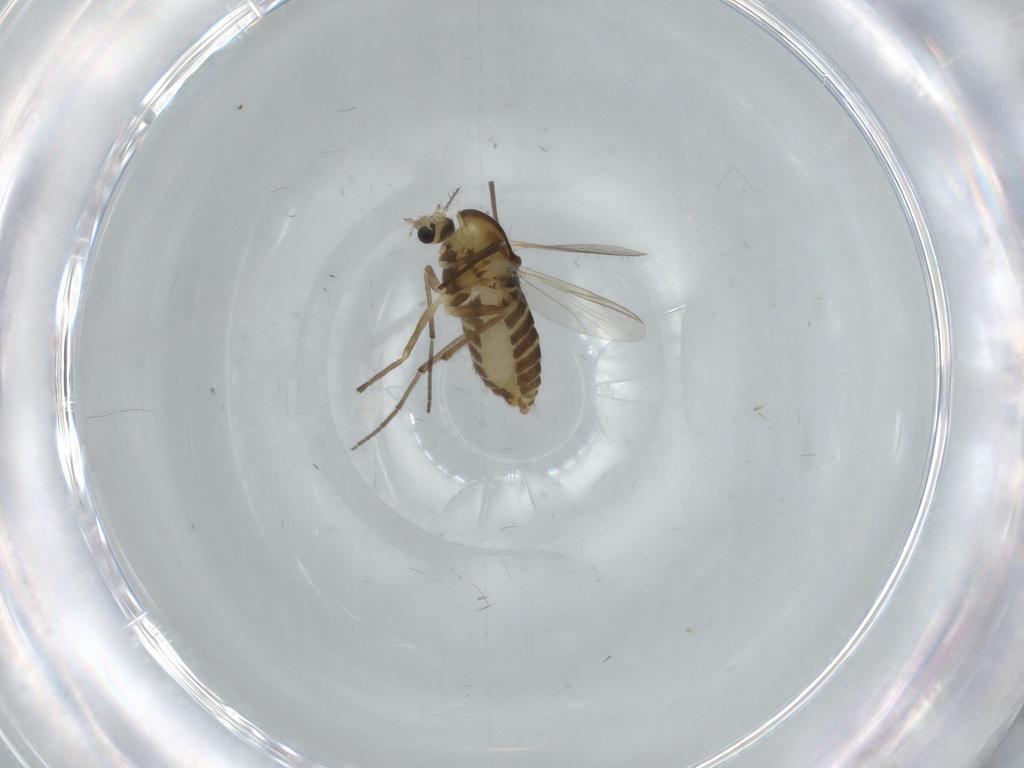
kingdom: Animalia
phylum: Arthropoda
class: Insecta
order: Diptera
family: Chironomidae
